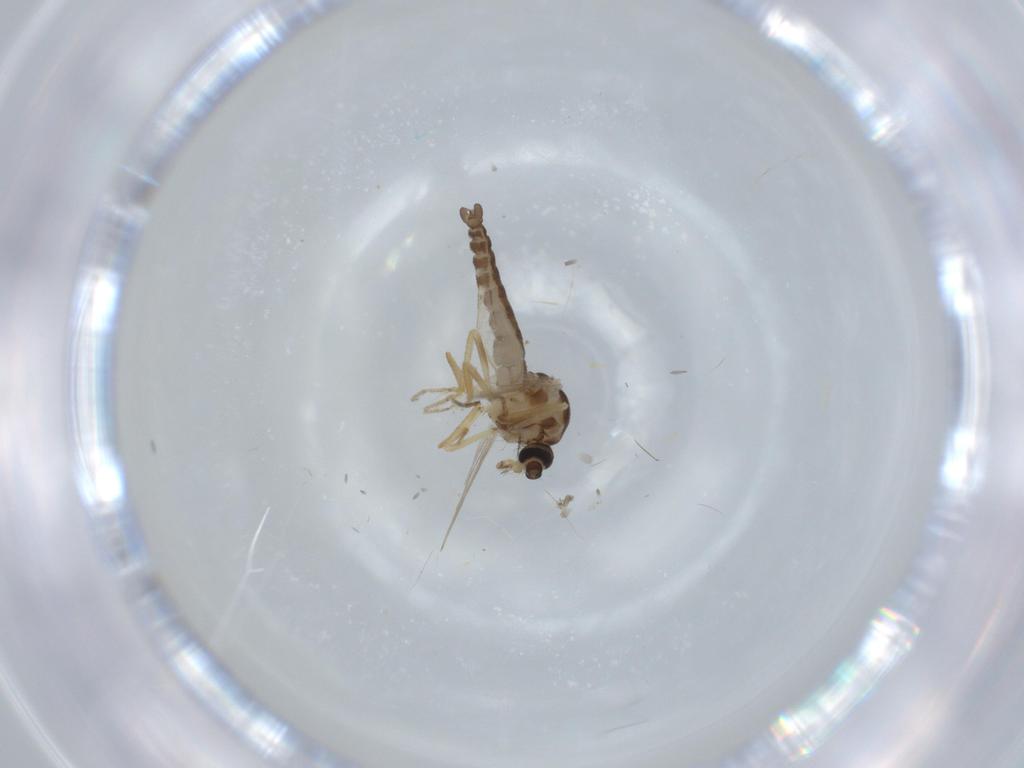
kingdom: Animalia
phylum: Arthropoda
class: Insecta
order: Diptera
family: Ceratopogonidae
